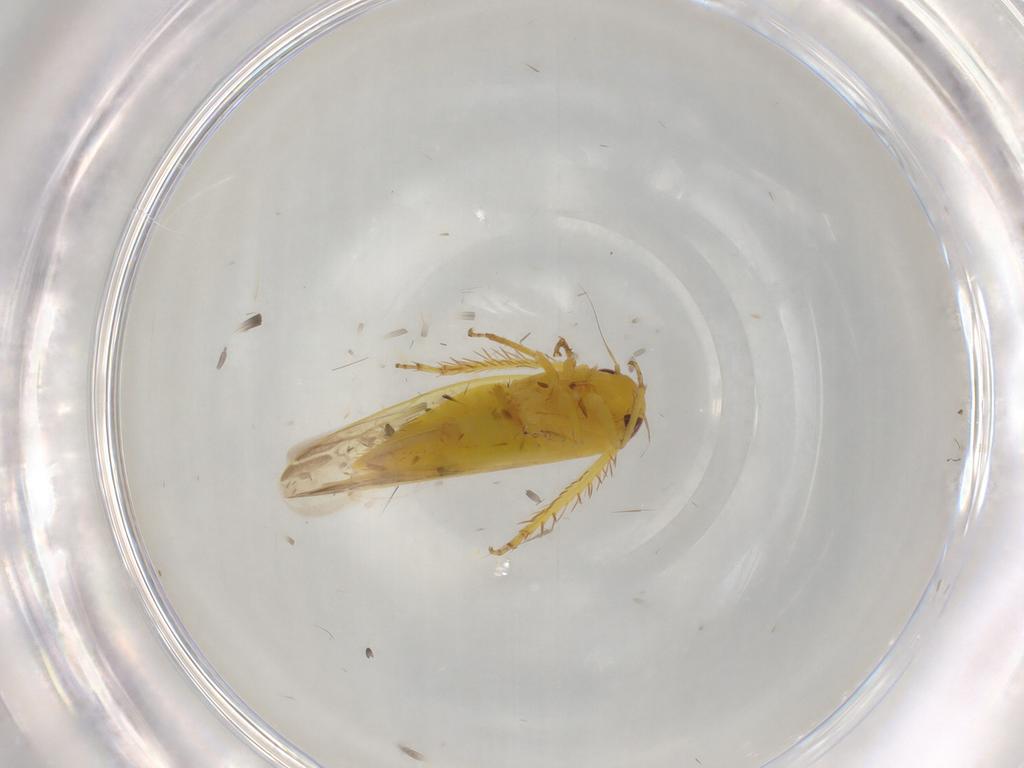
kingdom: Animalia
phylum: Arthropoda
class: Insecta
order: Hemiptera
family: Cicadellidae
